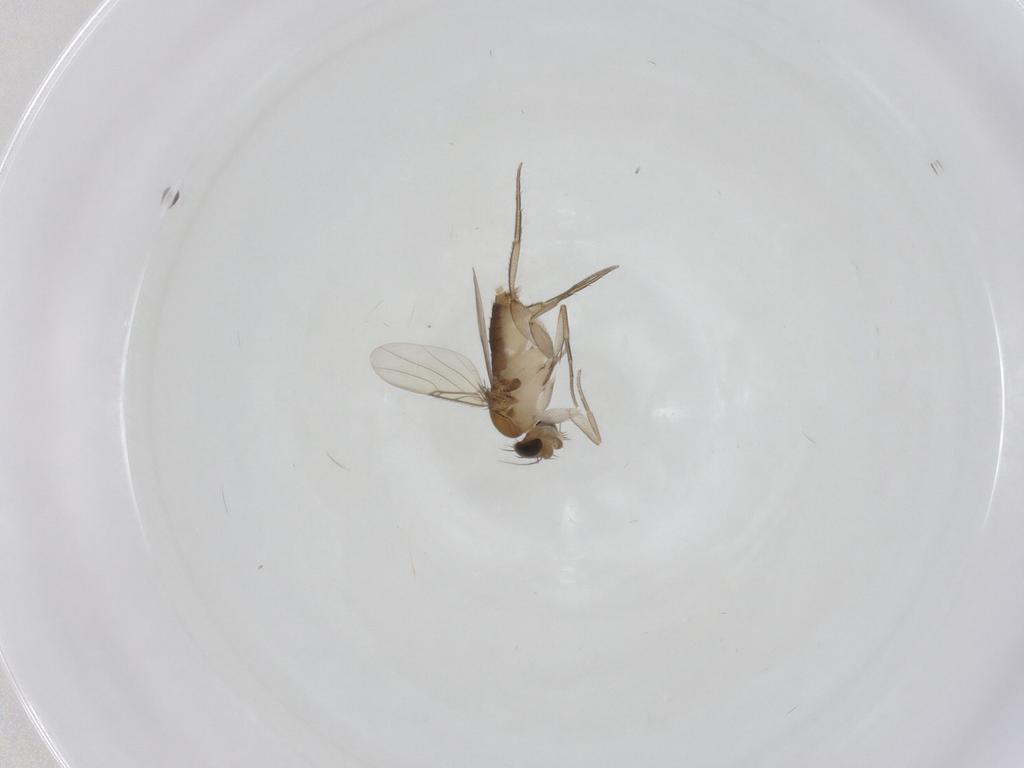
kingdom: Animalia
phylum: Arthropoda
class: Insecta
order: Diptera
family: Phoridae
